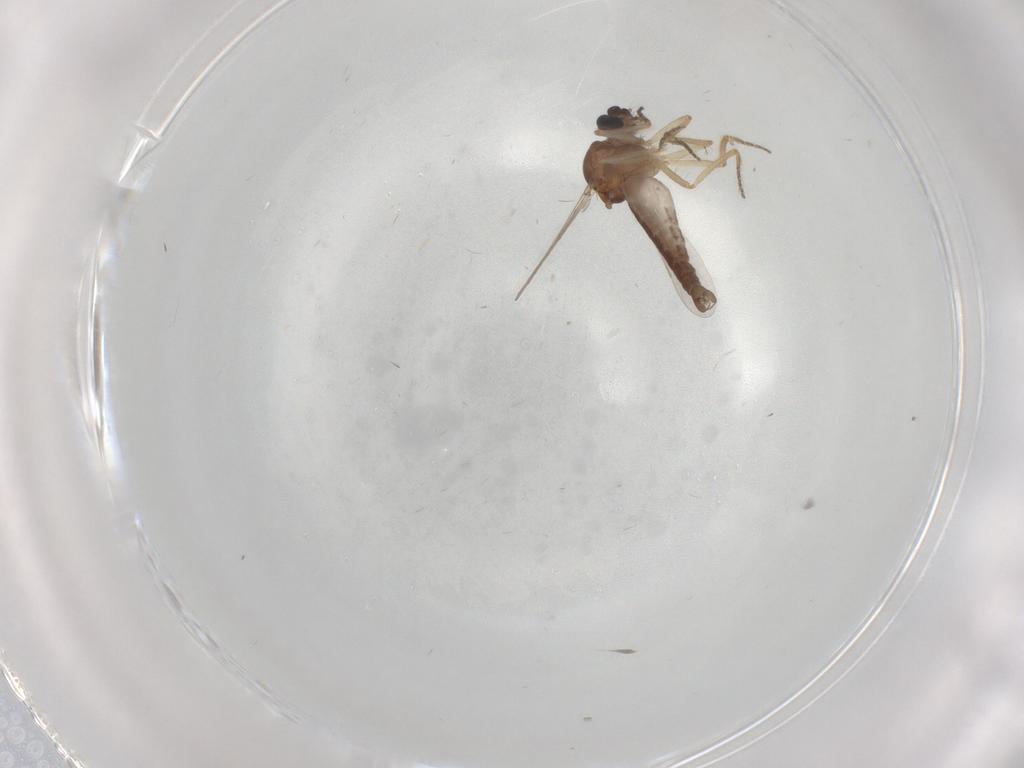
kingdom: Animalia
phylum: Arthropoda
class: Insecta
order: Diptera
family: Ceratopogonidae
